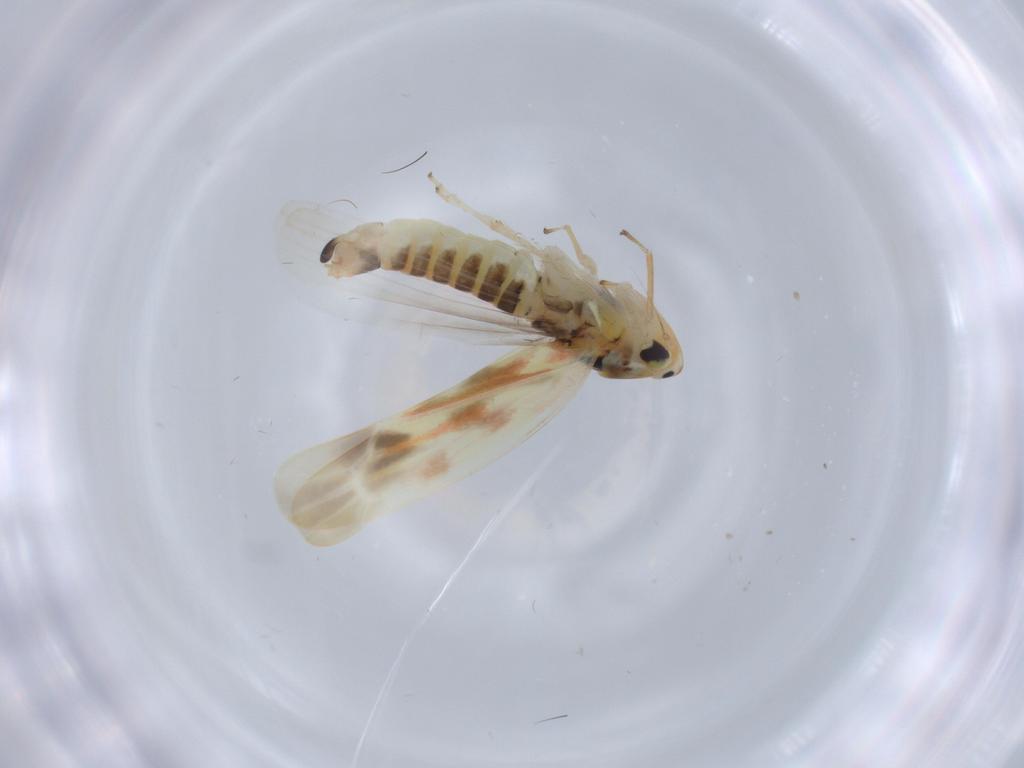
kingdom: Animalia
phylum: Arthropoda
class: Insecta
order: Hemiptera
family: Cicadellidae
